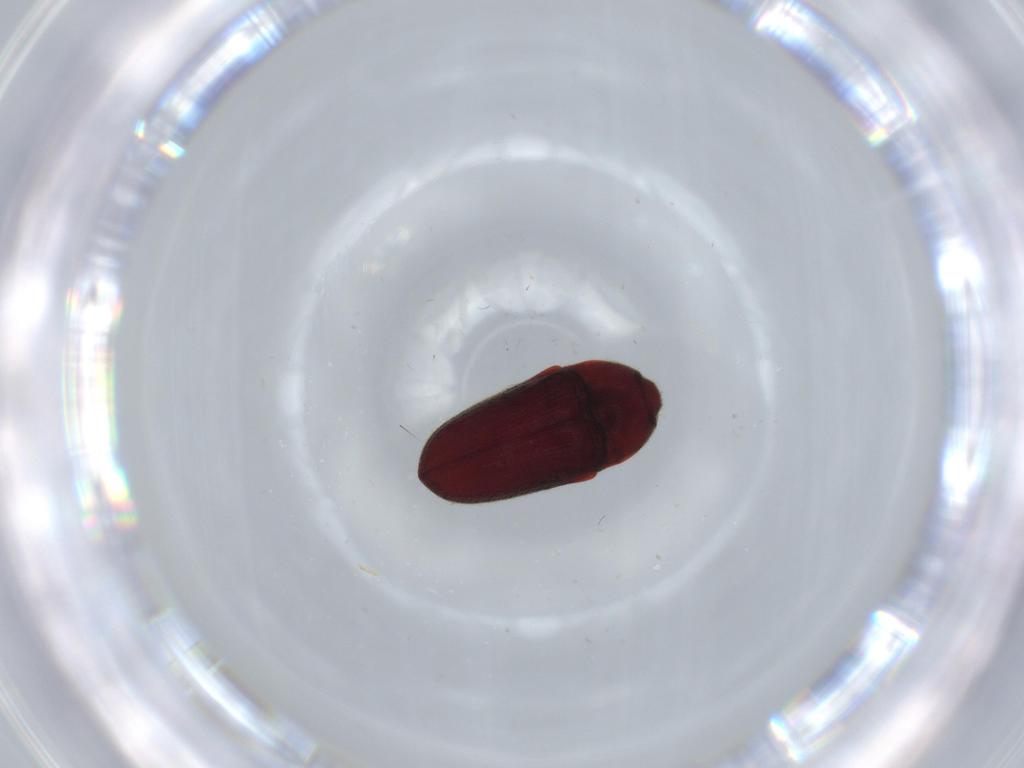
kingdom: Animalia
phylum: Arthropoda
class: Insecta
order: Coleoptera
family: Throscidae
